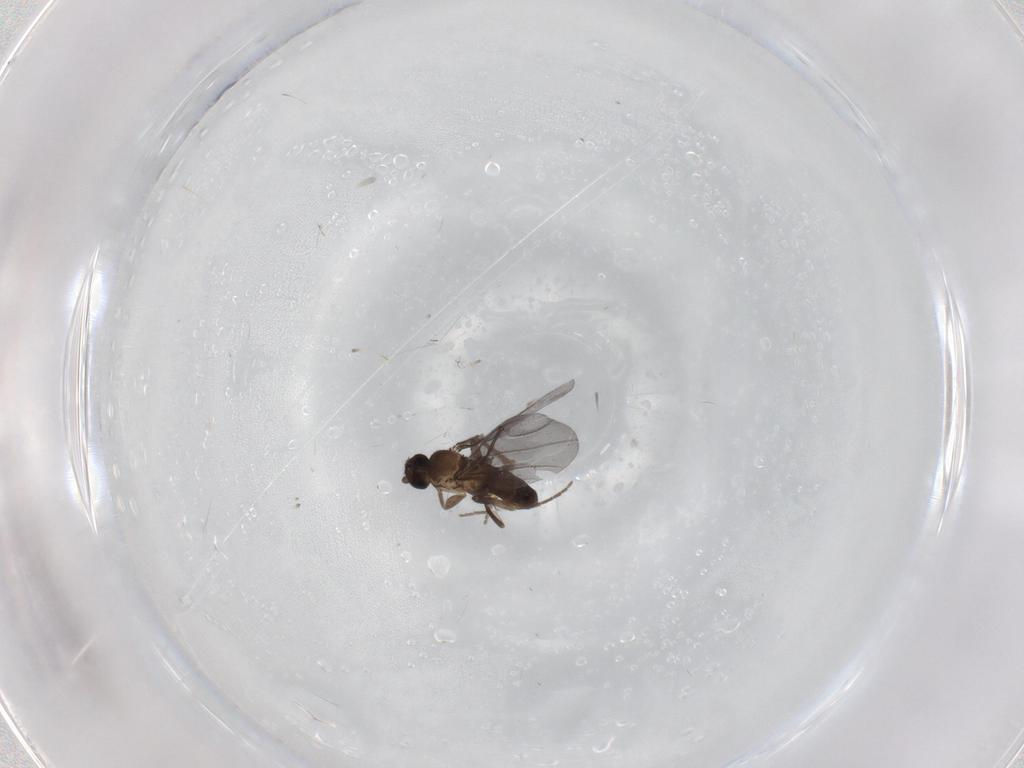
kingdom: Animalia
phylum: Arthropoda
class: Insecta
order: Diptera
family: Phoridae
